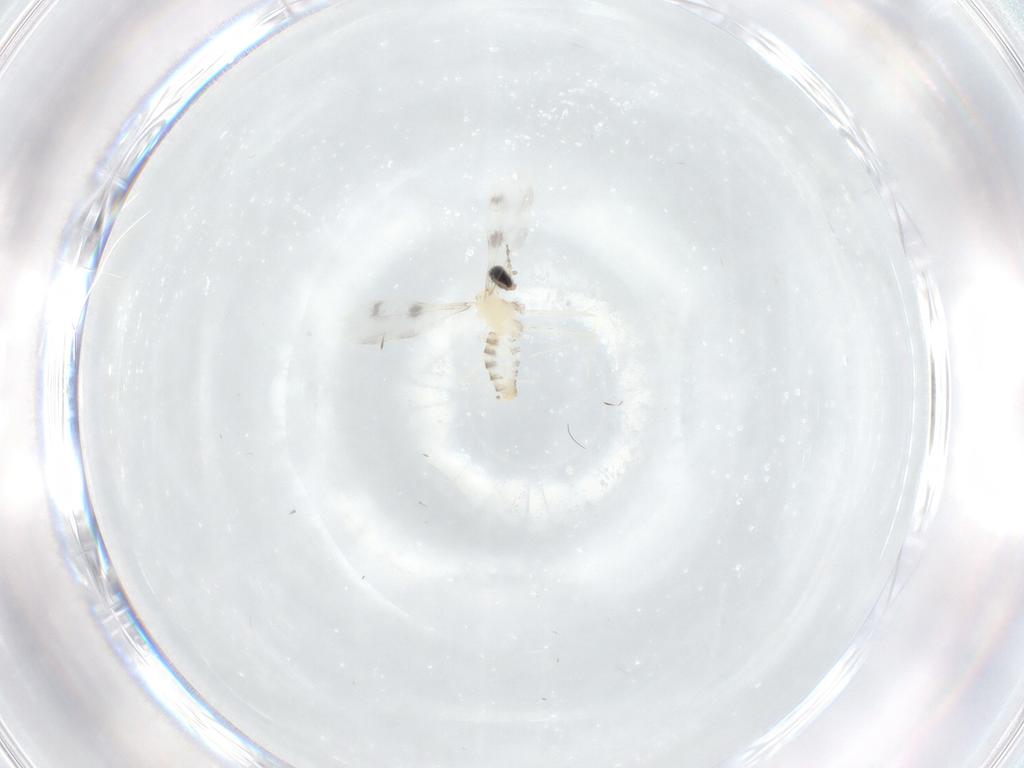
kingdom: Animalia
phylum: Arthropoda
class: Insecta
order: Diptera
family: Cecidomyiidae
